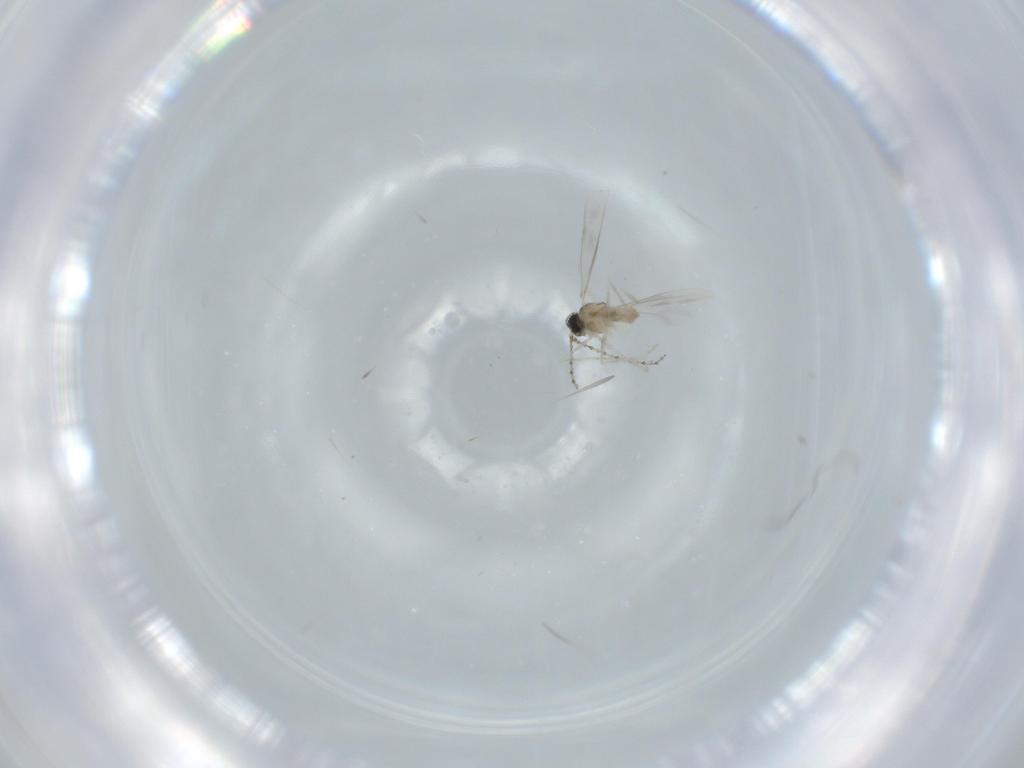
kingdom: Animalia
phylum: Arthropoda
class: Insecta
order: Diptera
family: Cecidomyiidae
